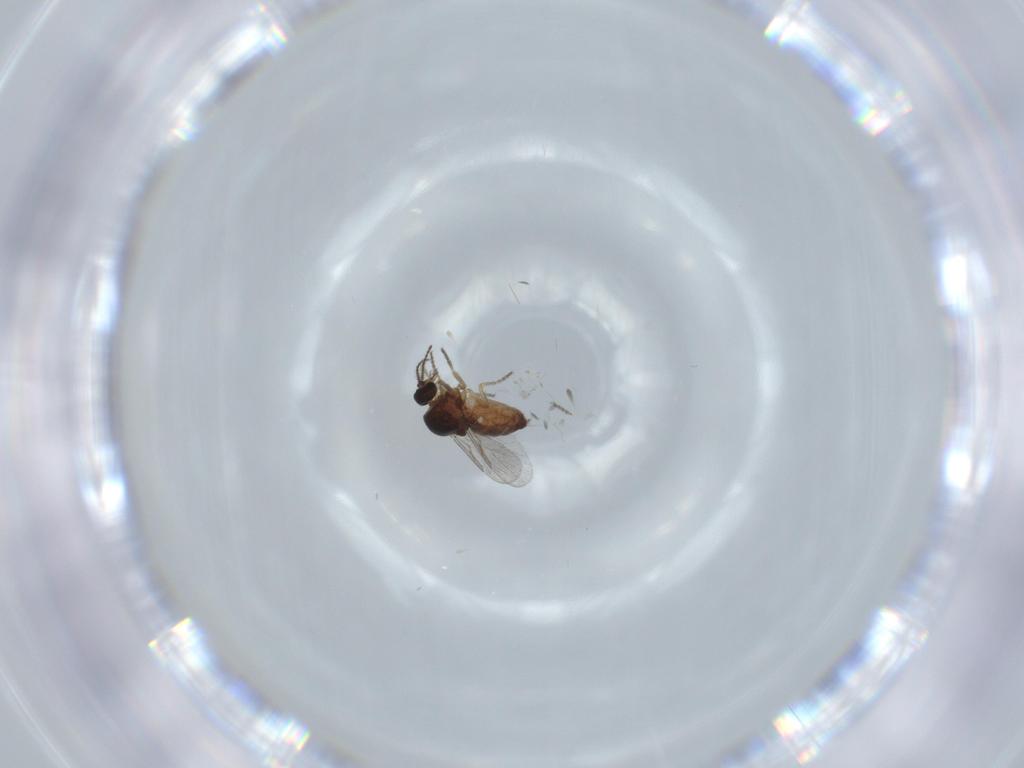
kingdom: Animalia
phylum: Arthropoda
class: Insecta
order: Diptera
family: Ceratopogonidae
